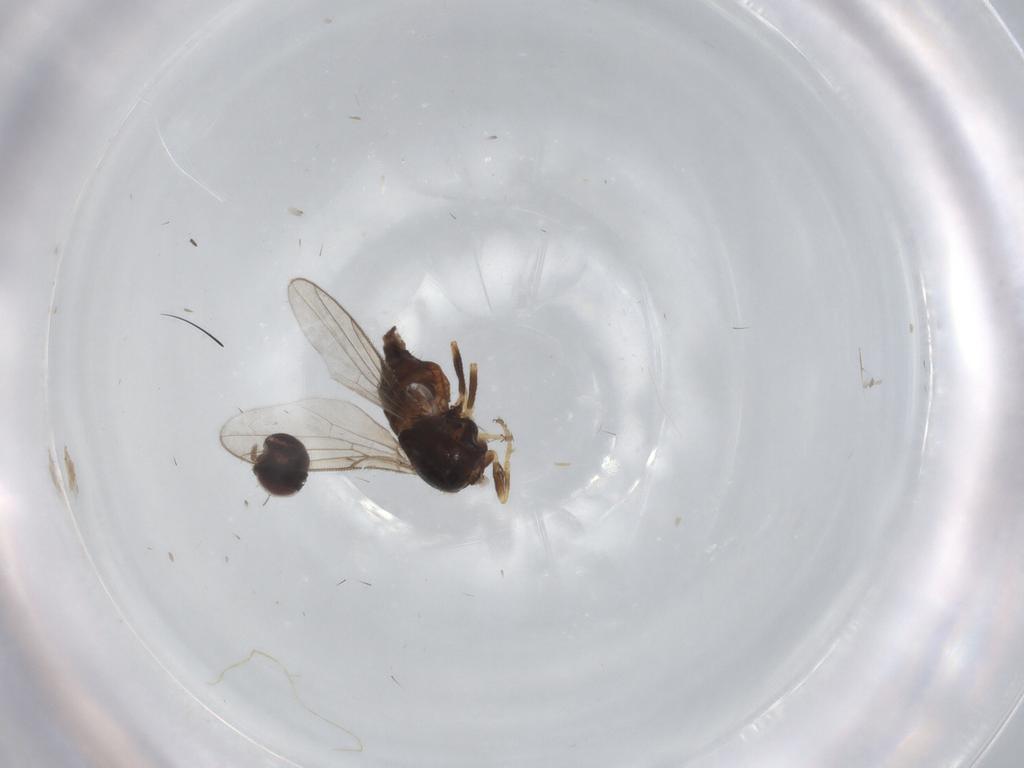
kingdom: Animalia
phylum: Arthropoda
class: Insecta
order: Diptera
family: Chloropidae
